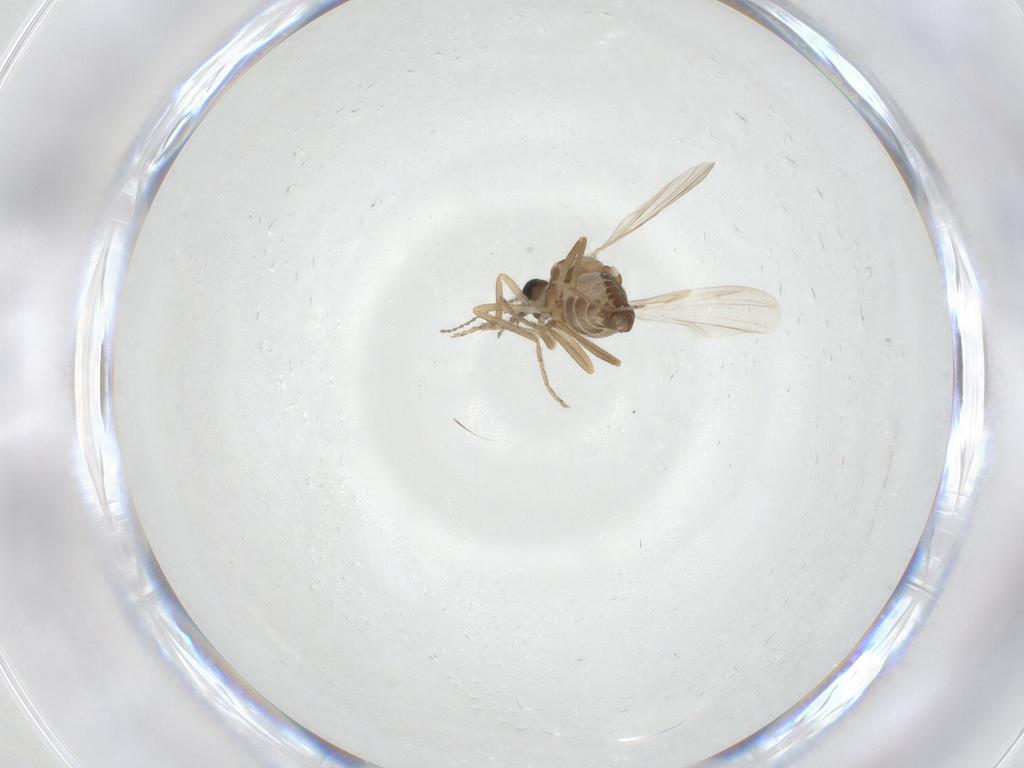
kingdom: Animalia
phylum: Arthropoda
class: Insecta
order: Diptera
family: Ceratopogonidae
